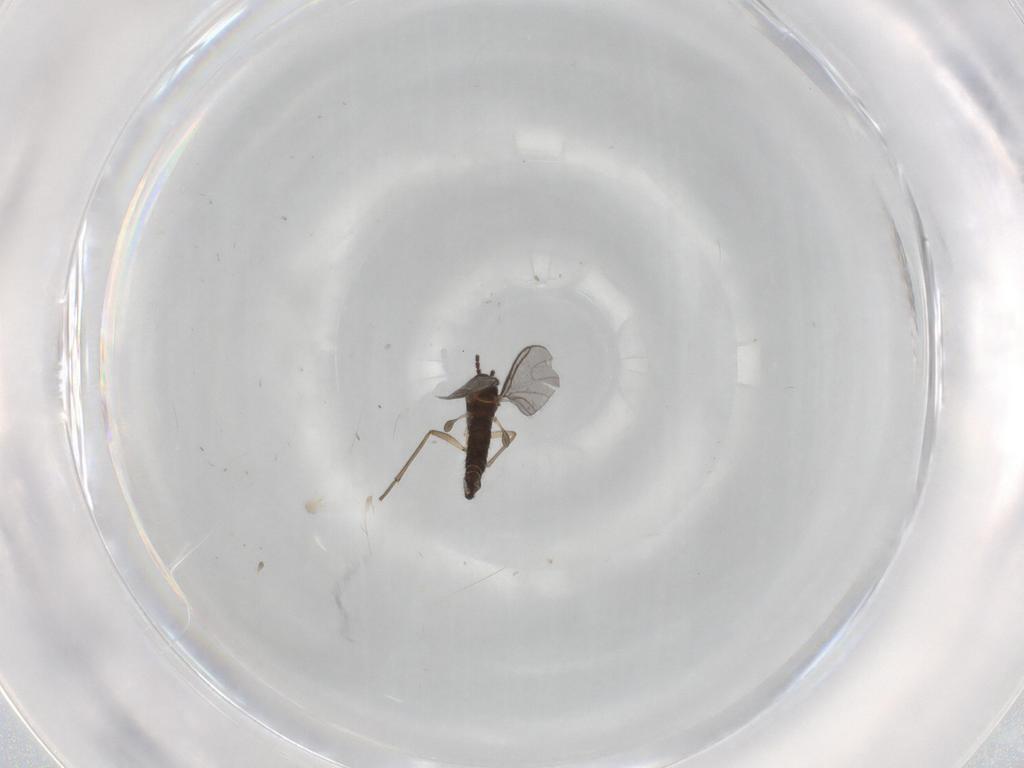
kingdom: Animalia
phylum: Arthropoda
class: Insecta
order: Diptera
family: Sciaridae
